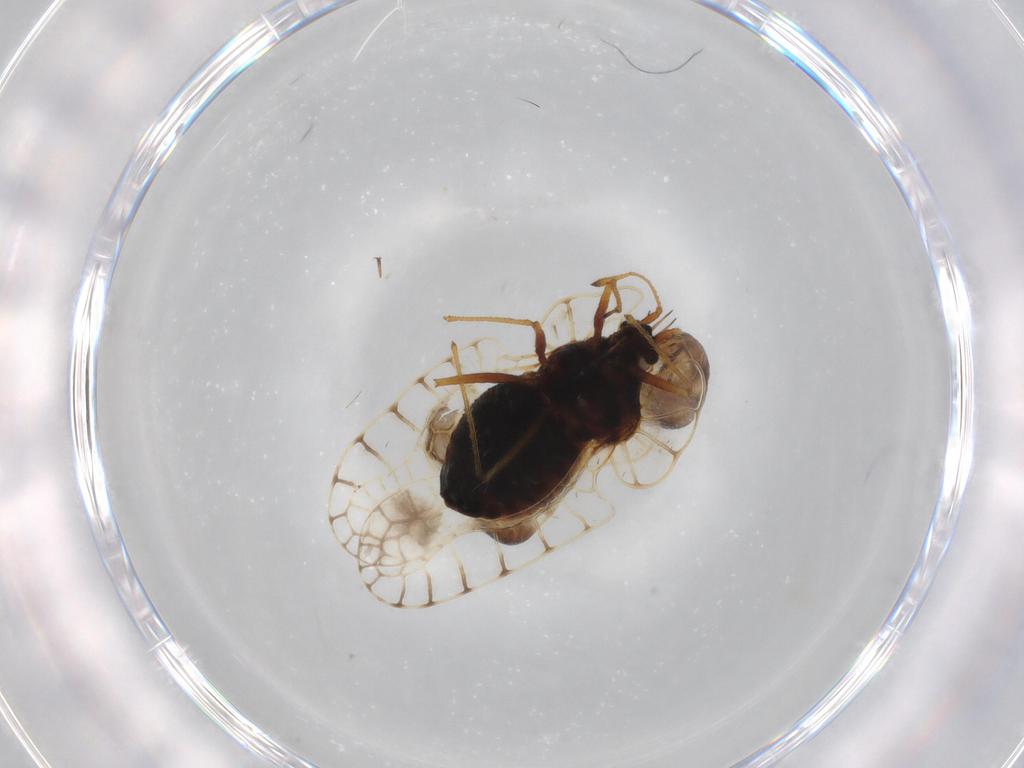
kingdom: Animalia
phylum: Arthropoda
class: Insecta
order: Hemiptera
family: Tingidae
